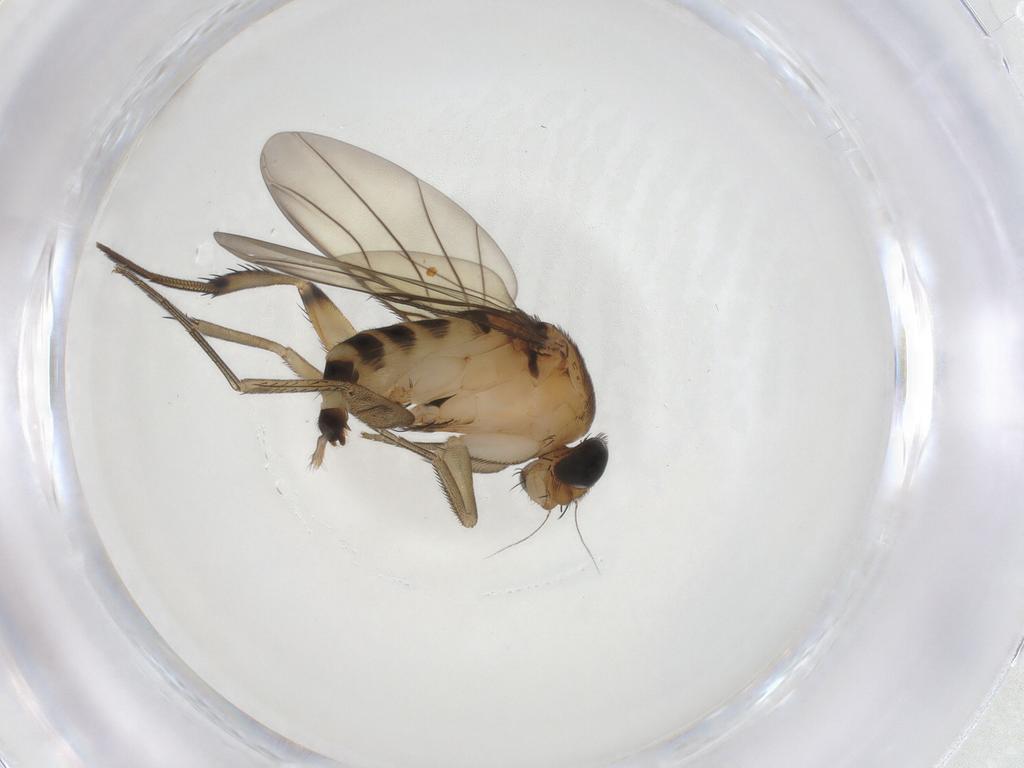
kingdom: Animalia
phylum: Arthropoda
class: Insecta
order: Diptera
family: Phoridae
